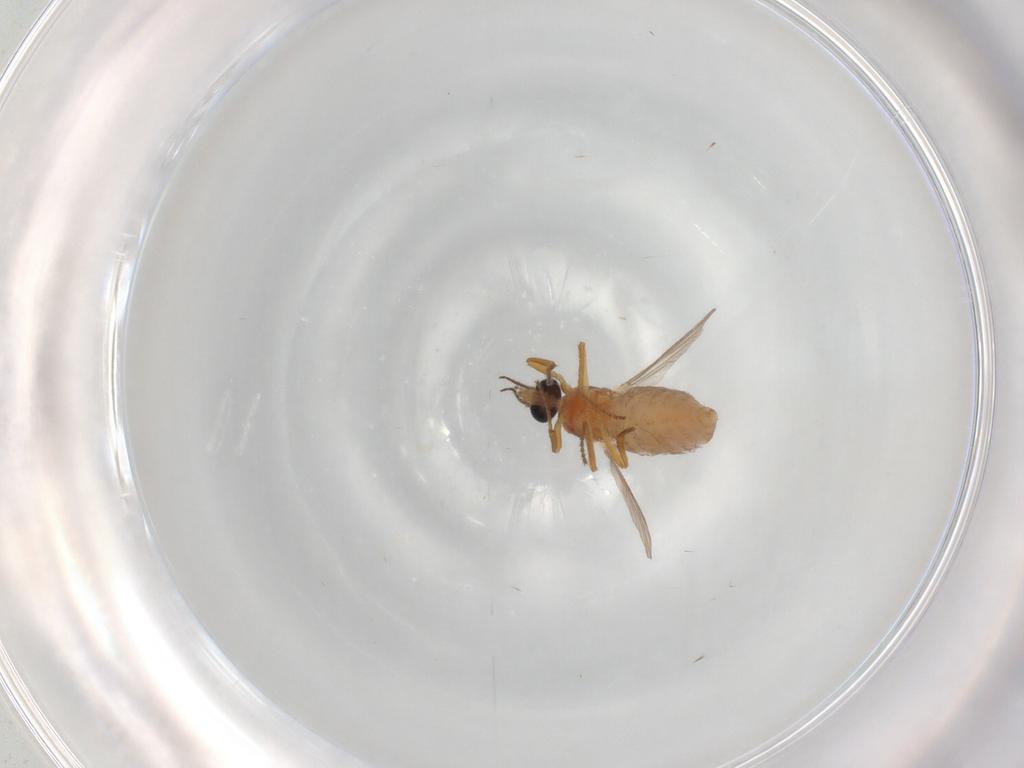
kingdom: Animalia
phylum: Arthropoda
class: Insecta
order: Diptera
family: Ceratopogonidae
